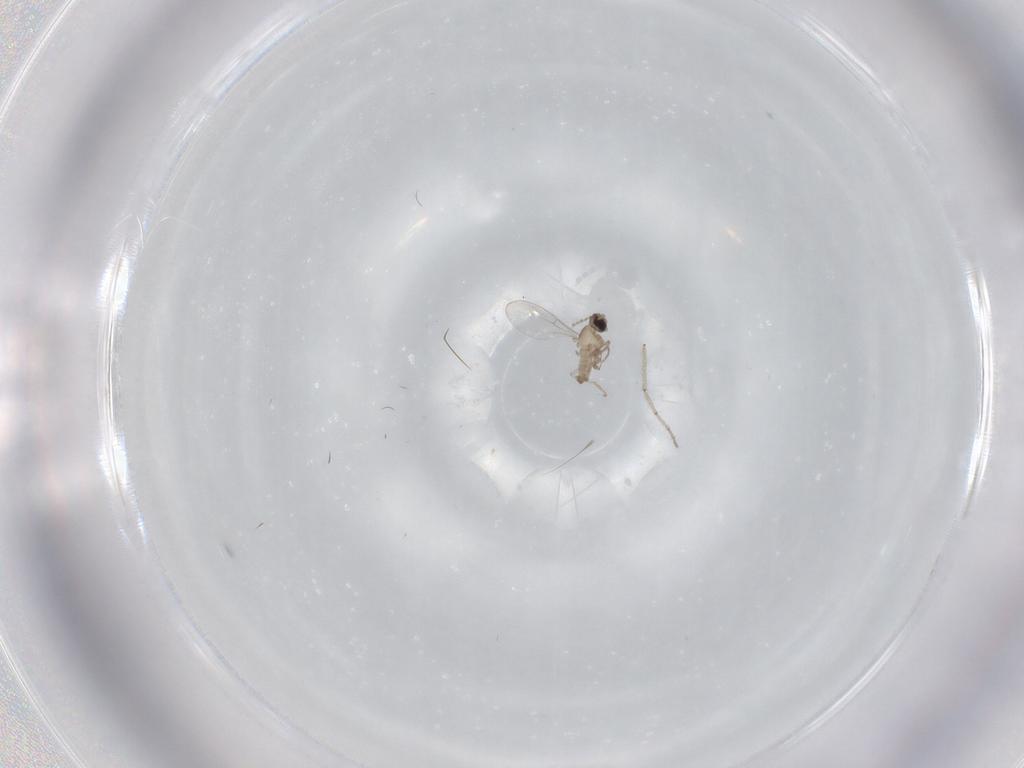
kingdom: Animalia
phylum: Arthropoda
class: Insecta
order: Diptera
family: Cecidomyiidae
